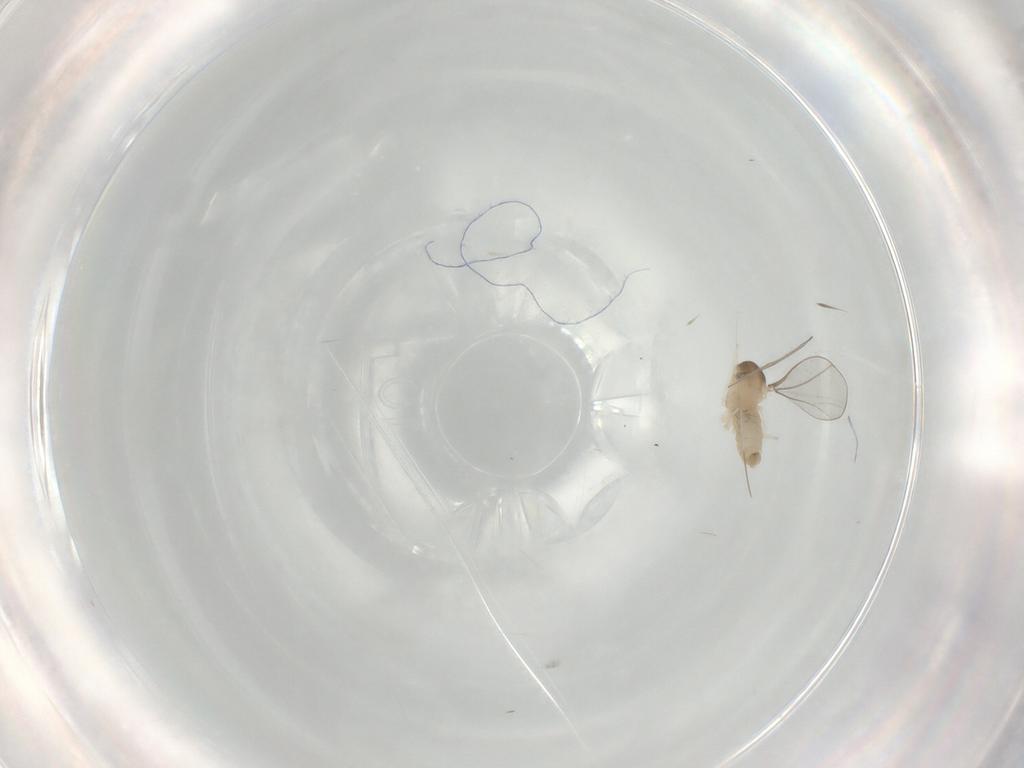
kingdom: Animalia
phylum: Arthropoda
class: Insecta
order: Diptera
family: Cecidomyiidae
